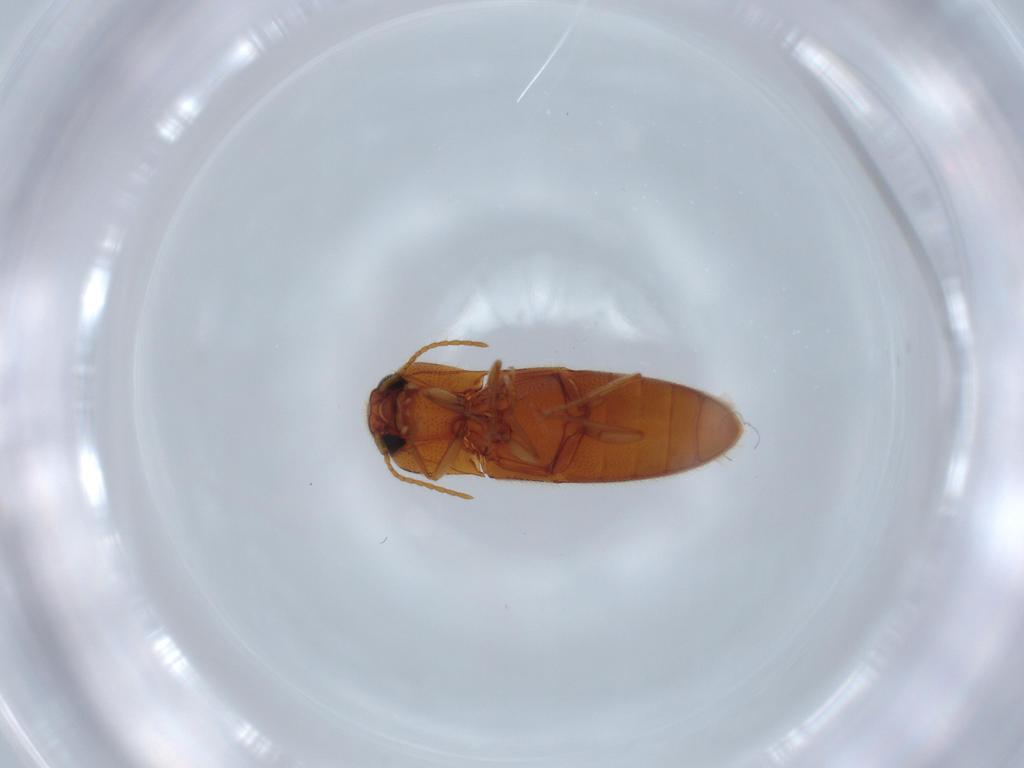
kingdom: Animalia
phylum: Arthropoda
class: Insecta
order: Coleoptera
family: Elateridae
